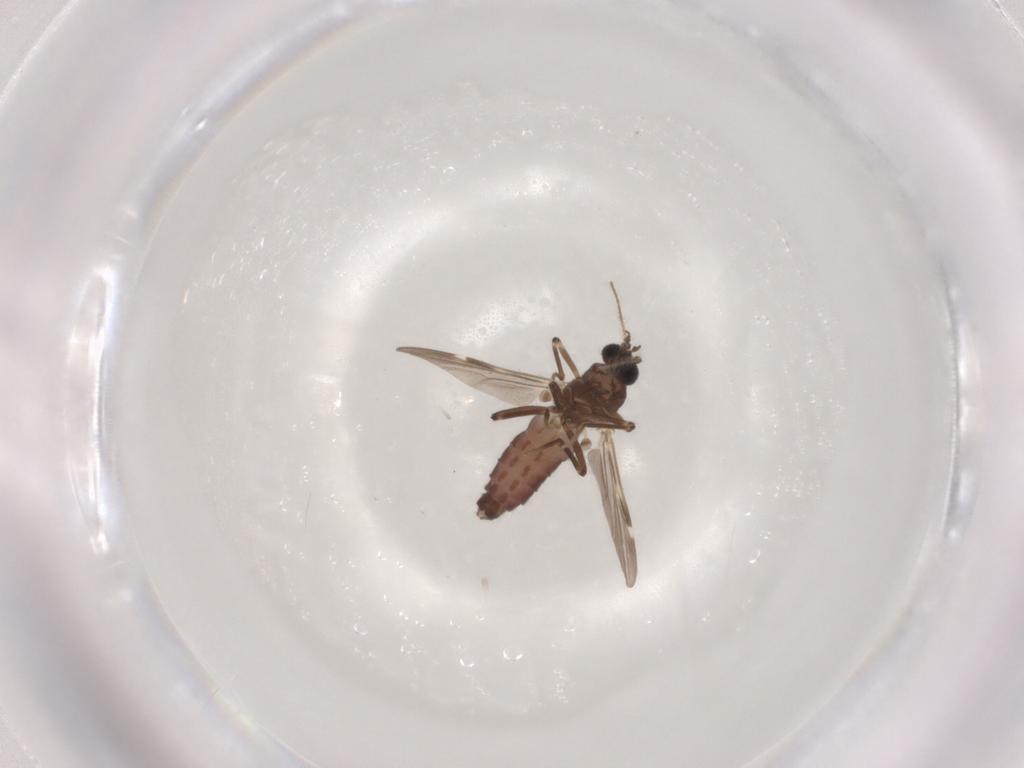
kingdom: Animalia
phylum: Arthropoda
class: Insecta
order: Diptera
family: Ceratopogonidae
